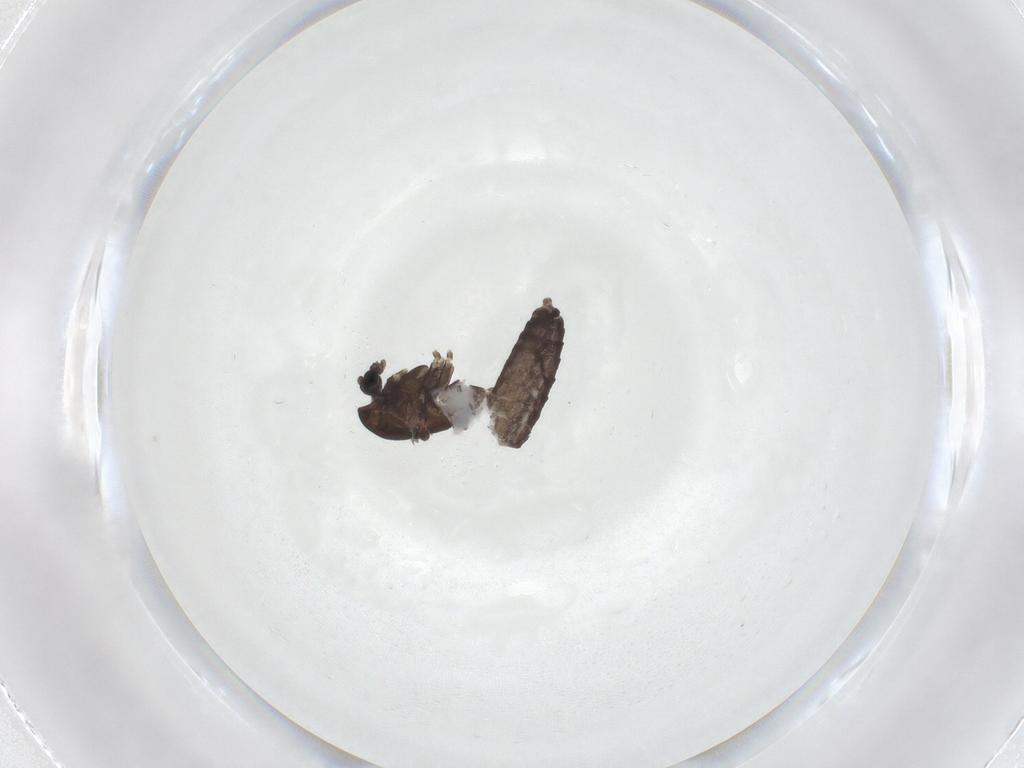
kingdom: Animalia
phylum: Arthropoda
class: Insecta
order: Diptera
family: Chironomidae
